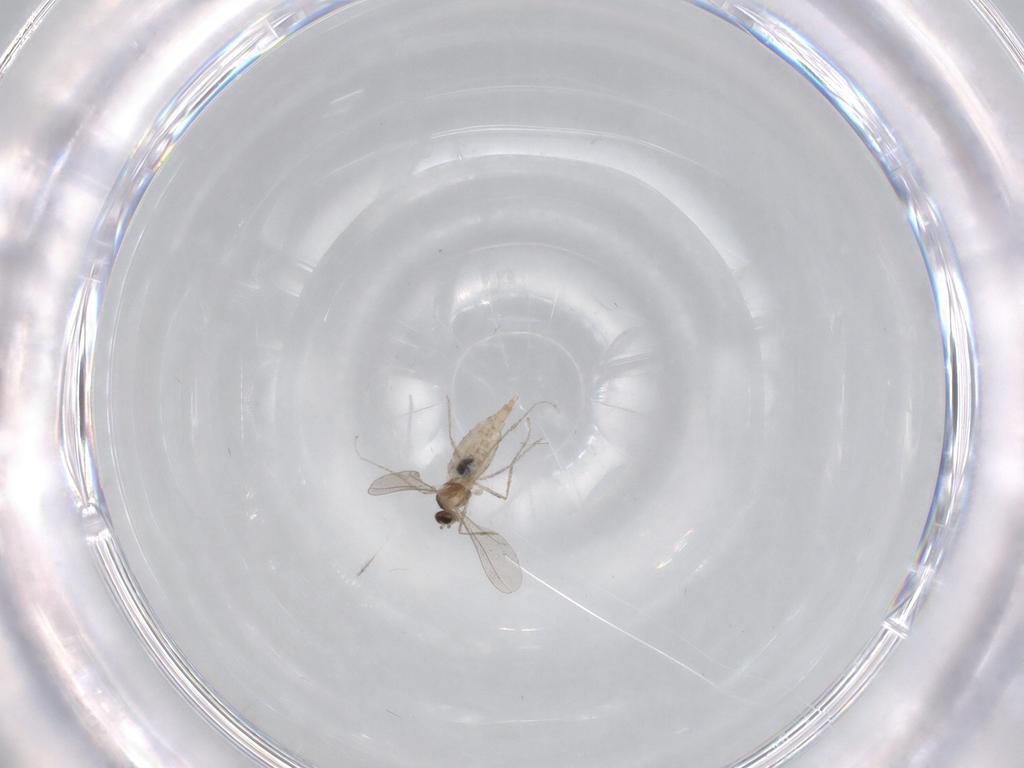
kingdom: Animalia
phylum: Arthropoda
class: Insecta
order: Diptera
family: Chironomidae
